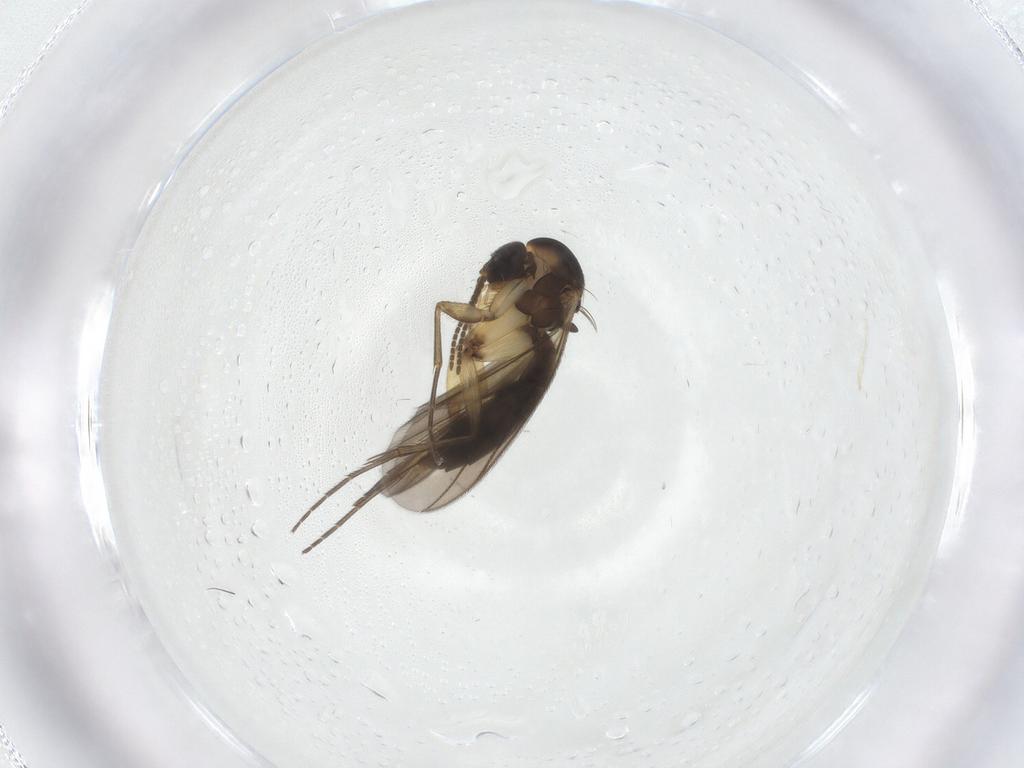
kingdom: Animalia
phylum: Arthropoda
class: Insecta
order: Diptera
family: Mycetophilidae
